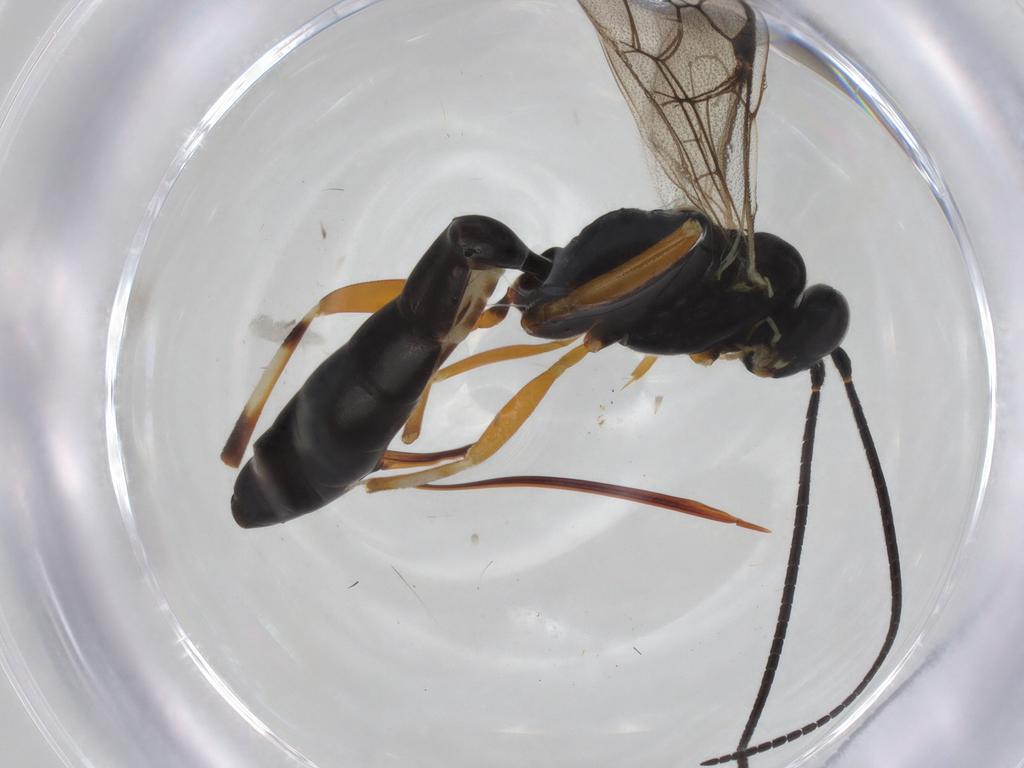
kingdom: Animalia
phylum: Arthropoda
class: Insecta
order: Hymenoptera
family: Ichneumonidae
